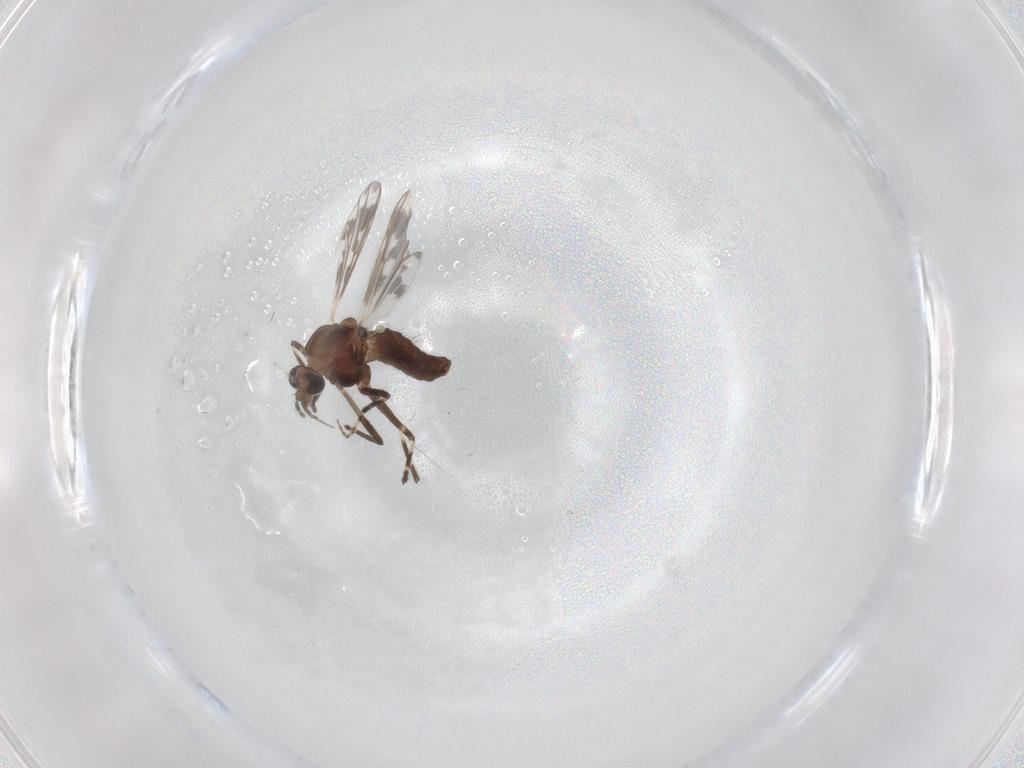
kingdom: Animalia
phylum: Arthropoda
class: Insecta
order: Diptera
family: Chironomidae
